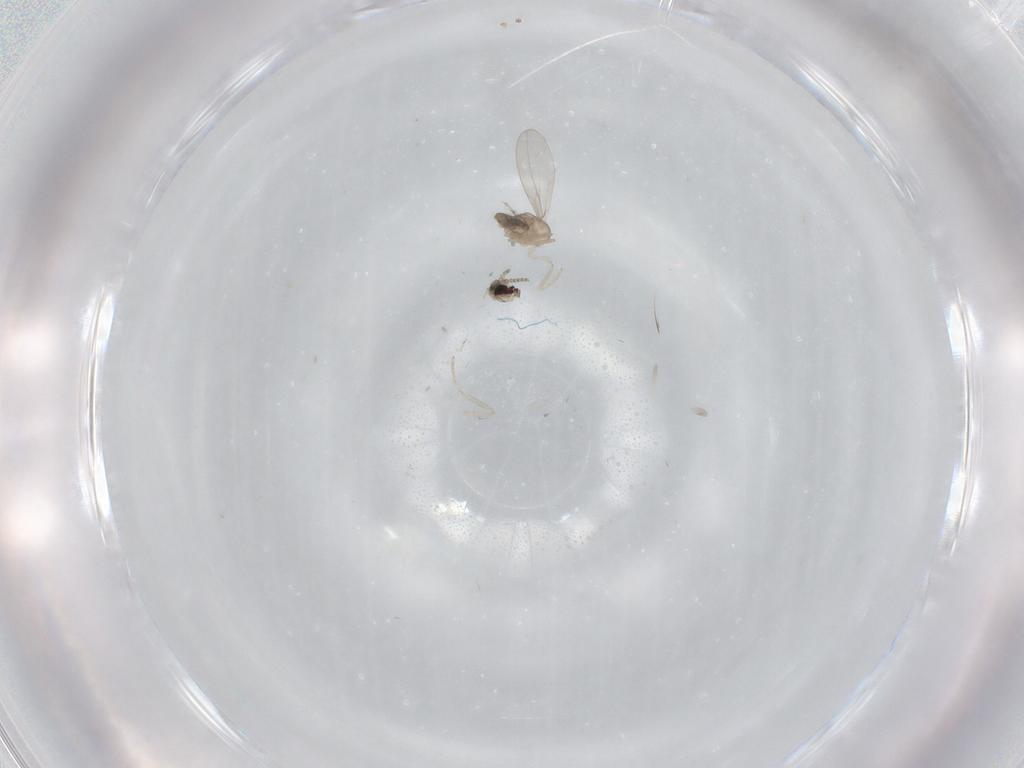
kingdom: Animalia
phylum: Arthropoda
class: Insecta
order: Diptera
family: Cecidomyiidae
